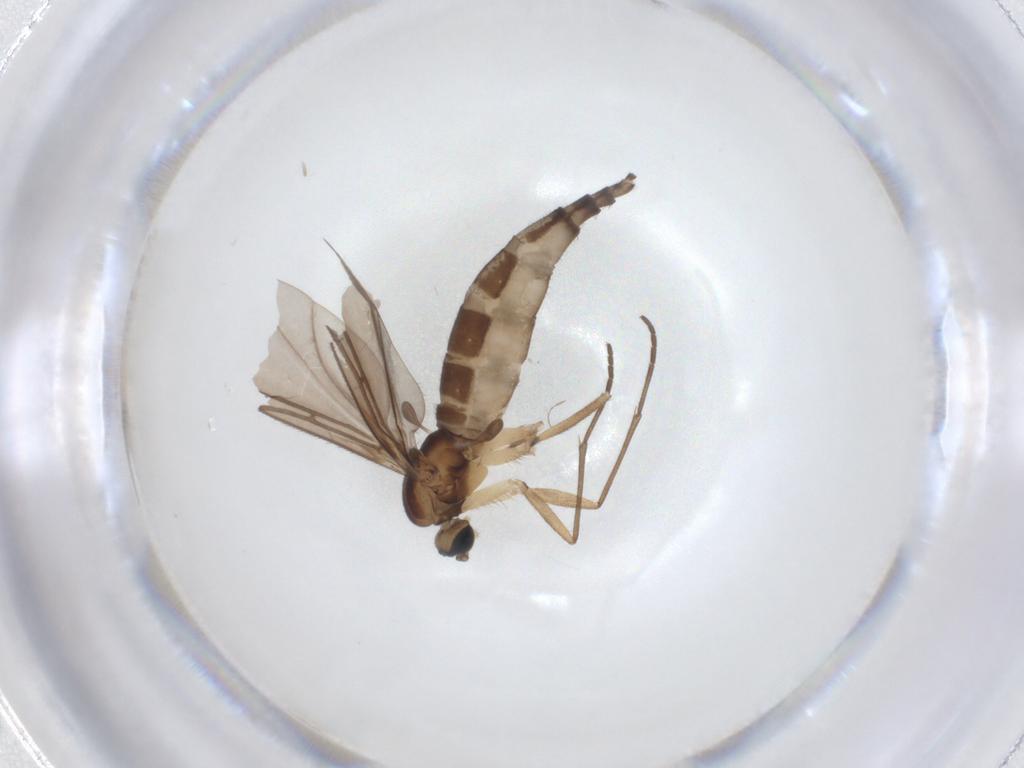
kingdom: Animalia
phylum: Arthropoda
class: Insecta
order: Diptera
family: Sciaridae
